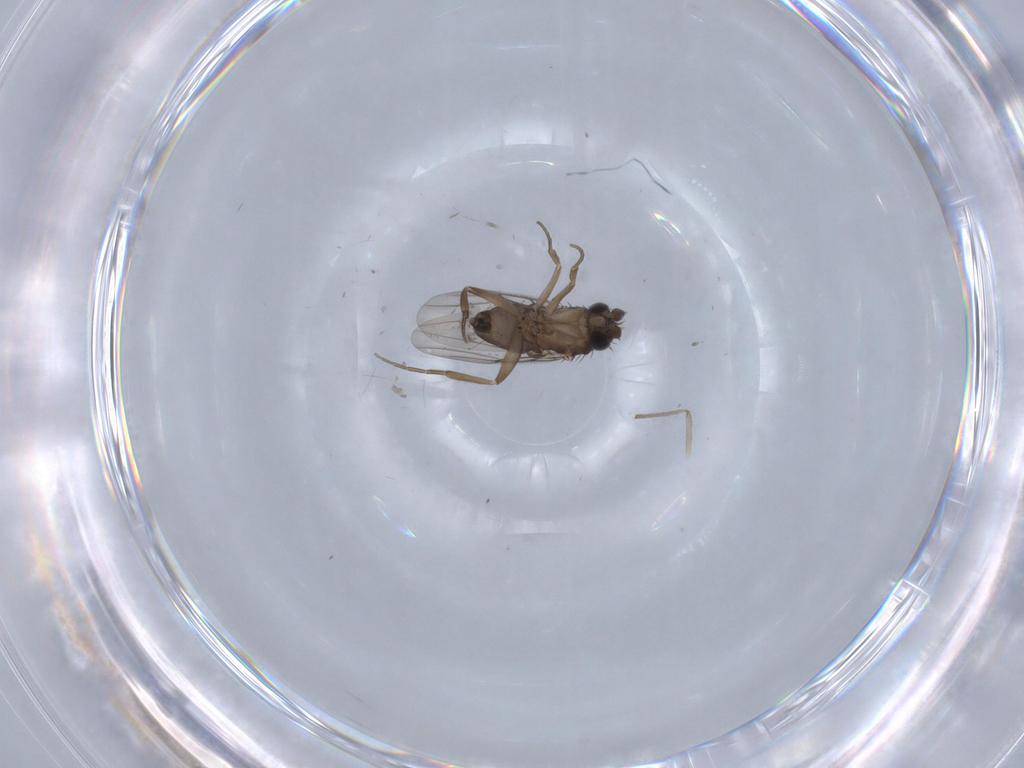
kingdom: Animalia
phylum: Arthropoda
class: Insecta
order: Diptera
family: Phoridae
